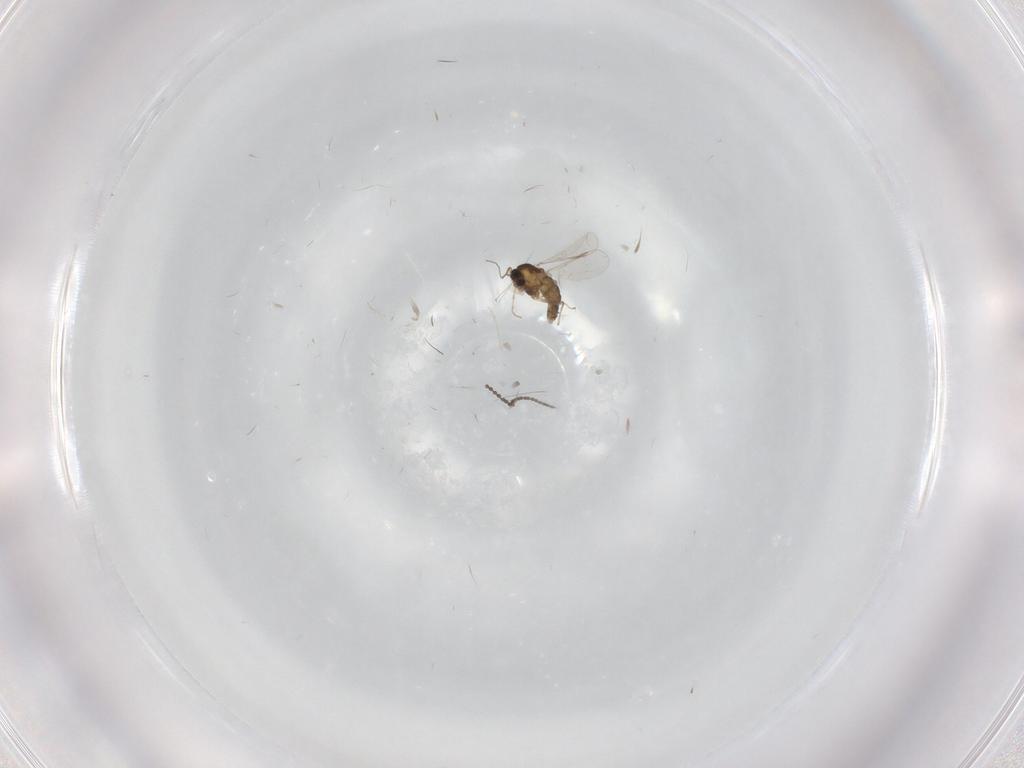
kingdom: Animalia
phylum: Arthropoda
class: Insecta
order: Diptera
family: Chironomidae
